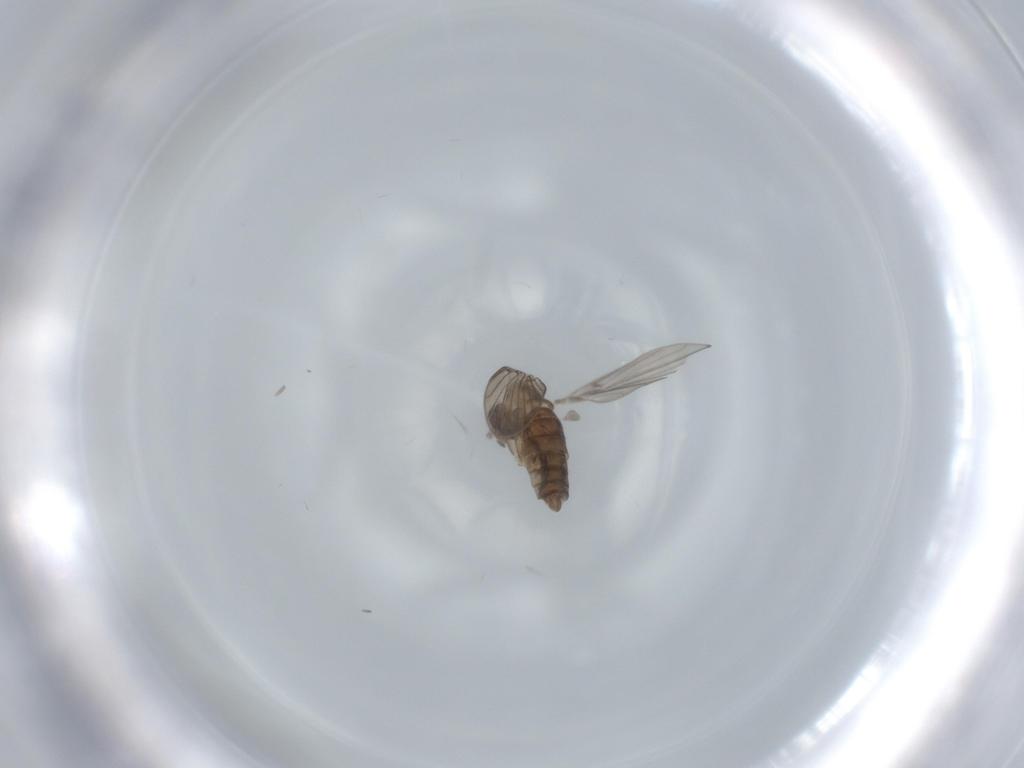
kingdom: Animalia
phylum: Arthropoda
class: Insecta
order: Diptera
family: Psychodidae
